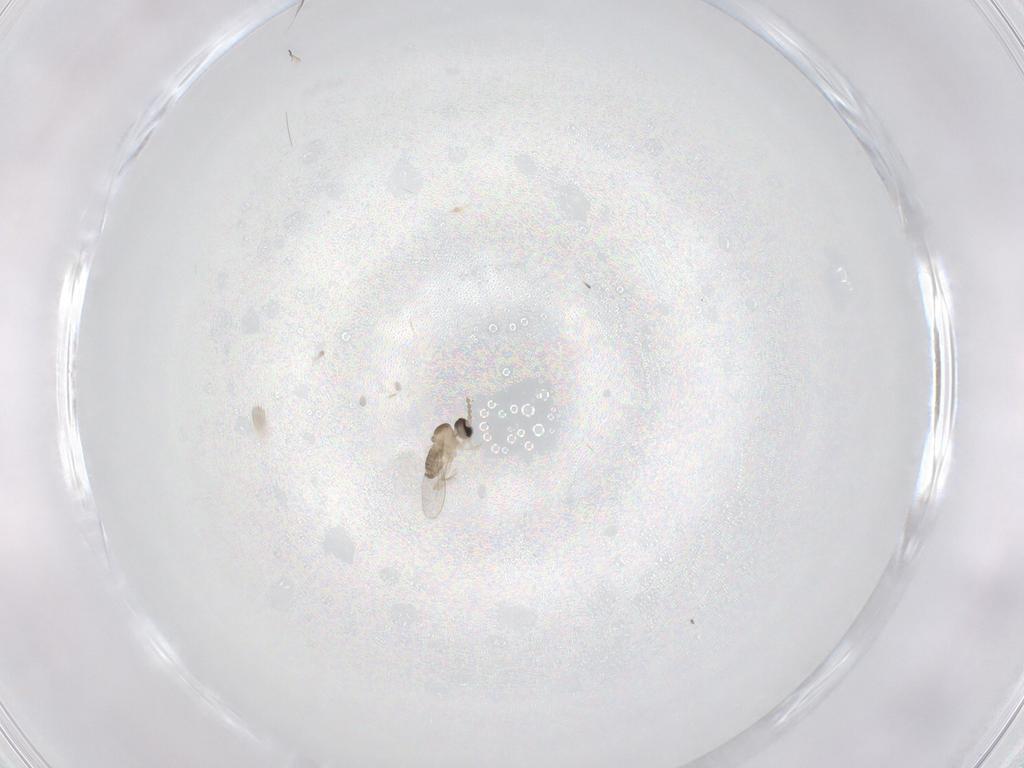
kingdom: Animalia
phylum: Arthropoda
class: Insecta
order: Diptera
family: Cecidomyiidae
